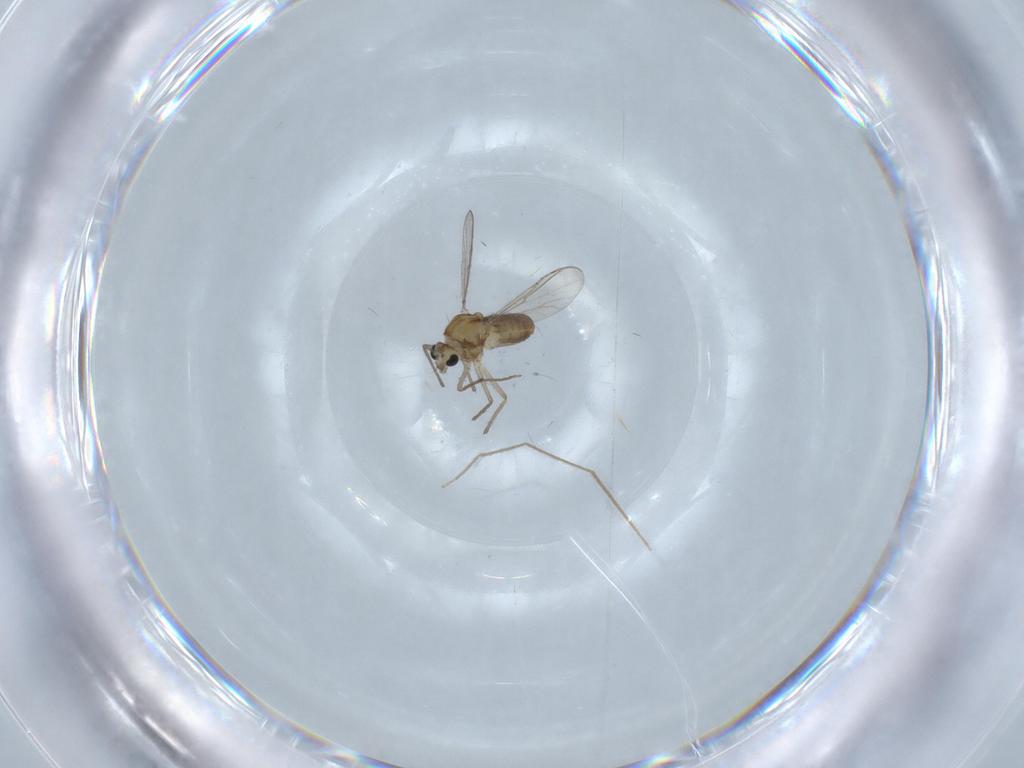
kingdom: Animalia
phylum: Arthropoda
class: Insecta
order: Diptera
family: Chironomidae
